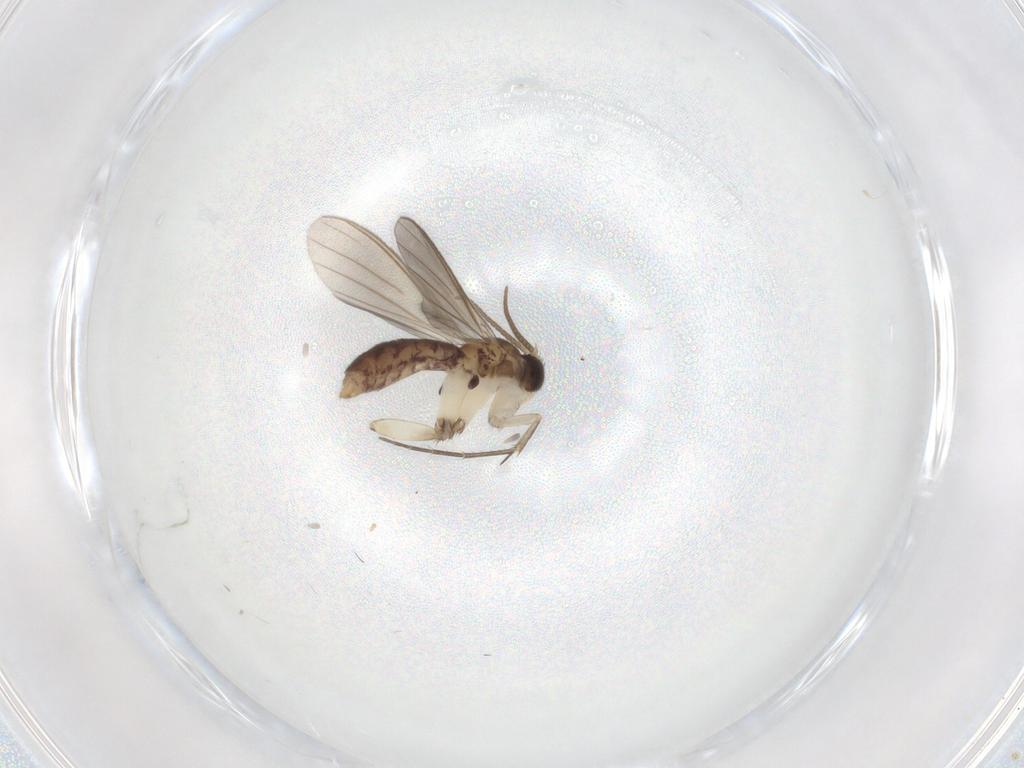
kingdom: Animalia
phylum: Arthropoda
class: Insecta
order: Diptera
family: Mycetophilidae
